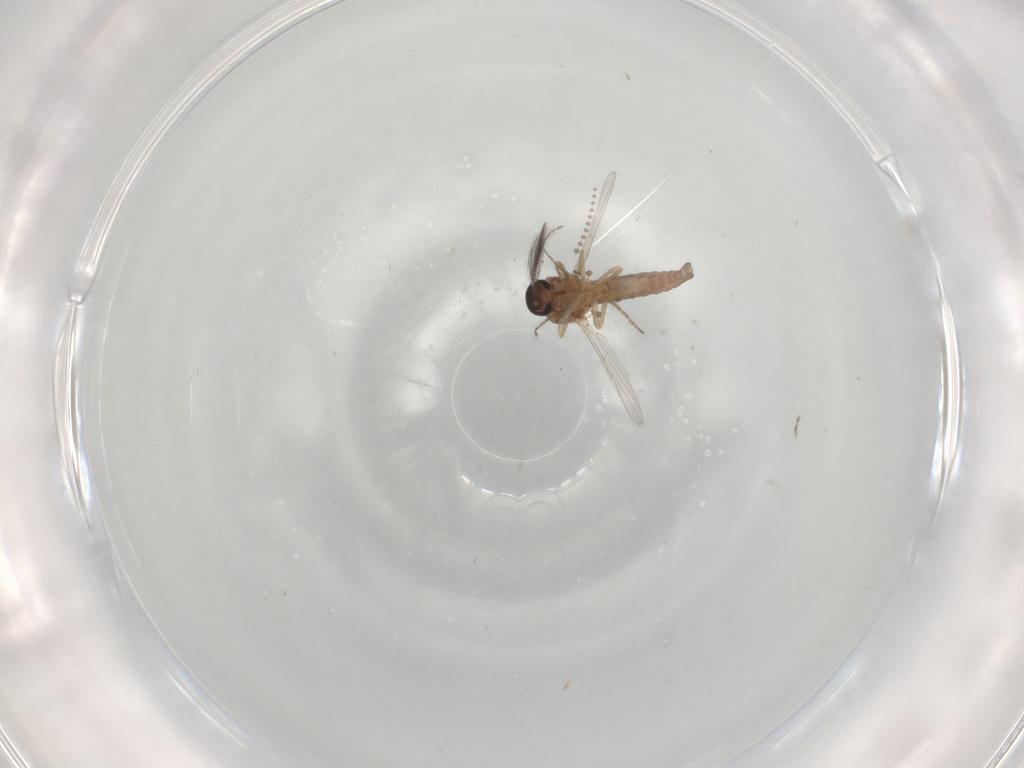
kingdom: Animalia
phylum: Arthropoda
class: Insecta
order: Diptera
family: Ceratopogonidae
